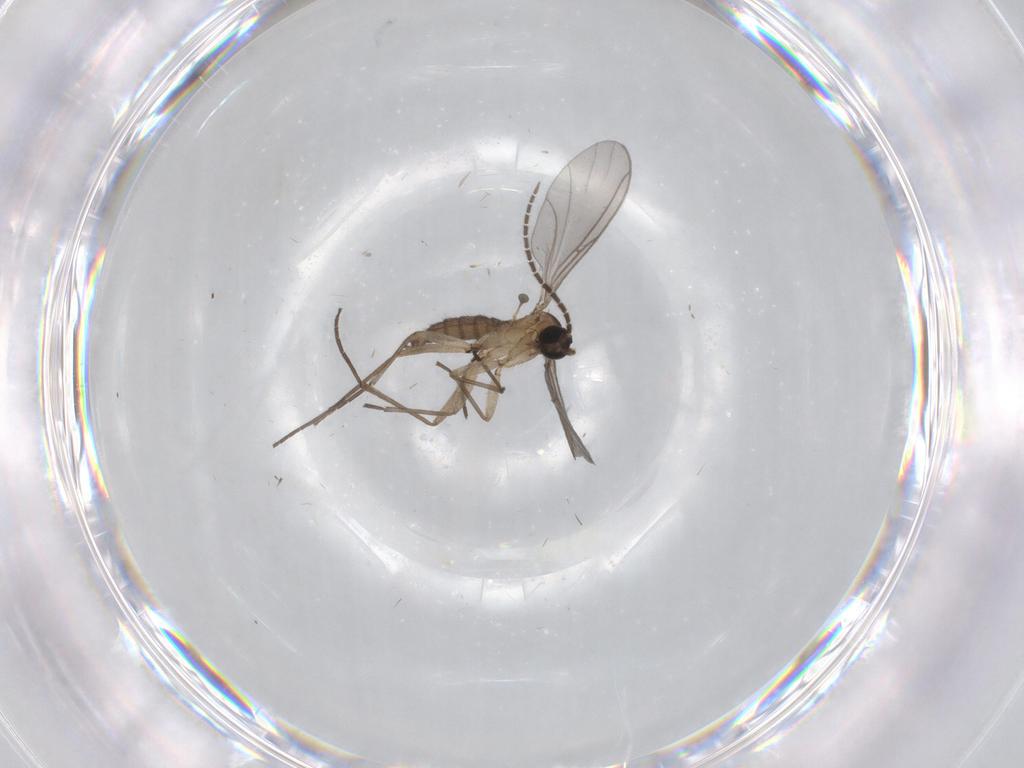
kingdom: Animalia
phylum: Arthropoda
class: Insecta
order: Diptera
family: Sciaridae
